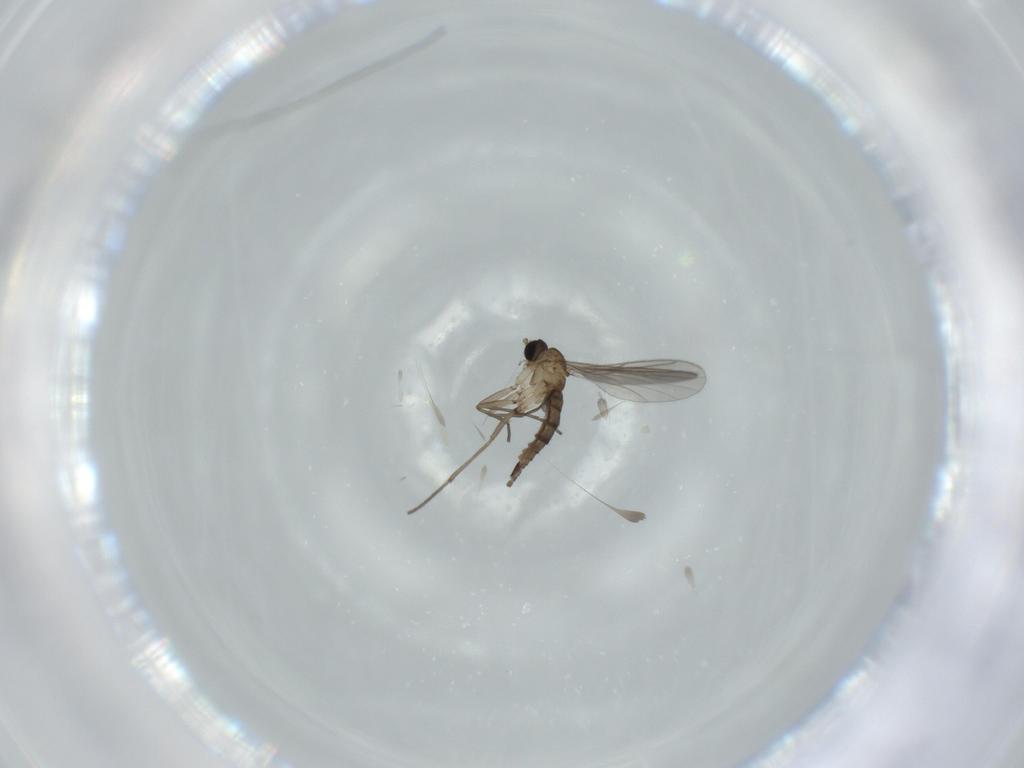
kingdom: Animalia
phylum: Arthropoda
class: Insecta
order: Diptera
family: Sciaridae
